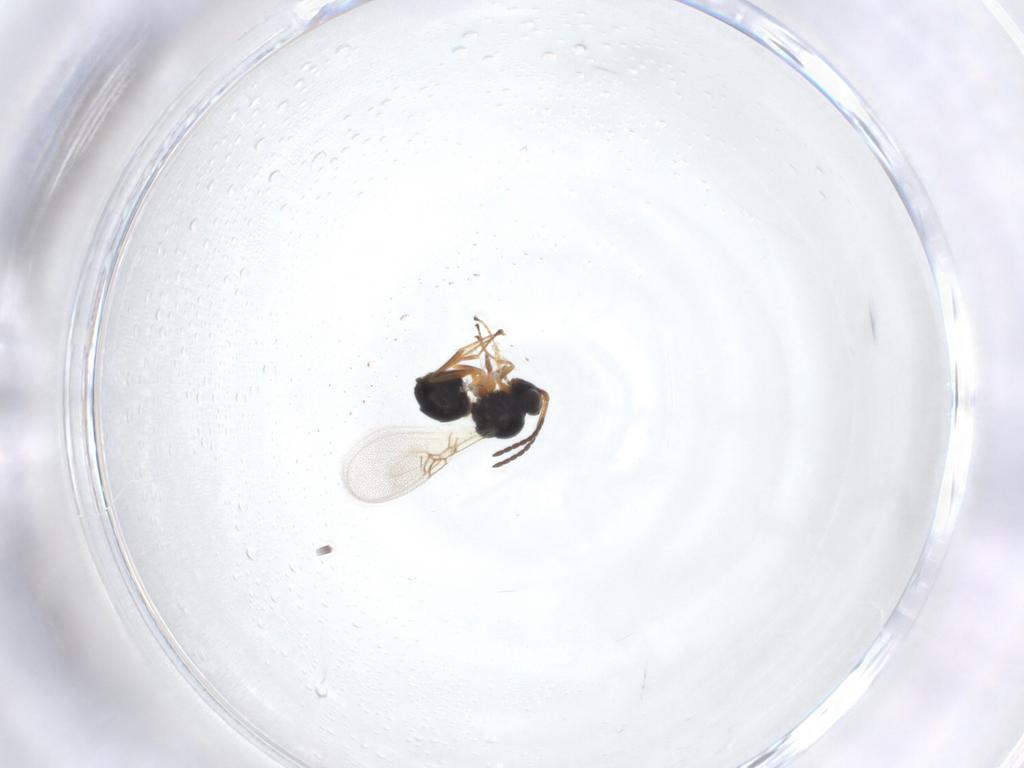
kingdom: Animalia
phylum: Arthropoda
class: Insecta
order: Hymenoptera
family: Figitidae
